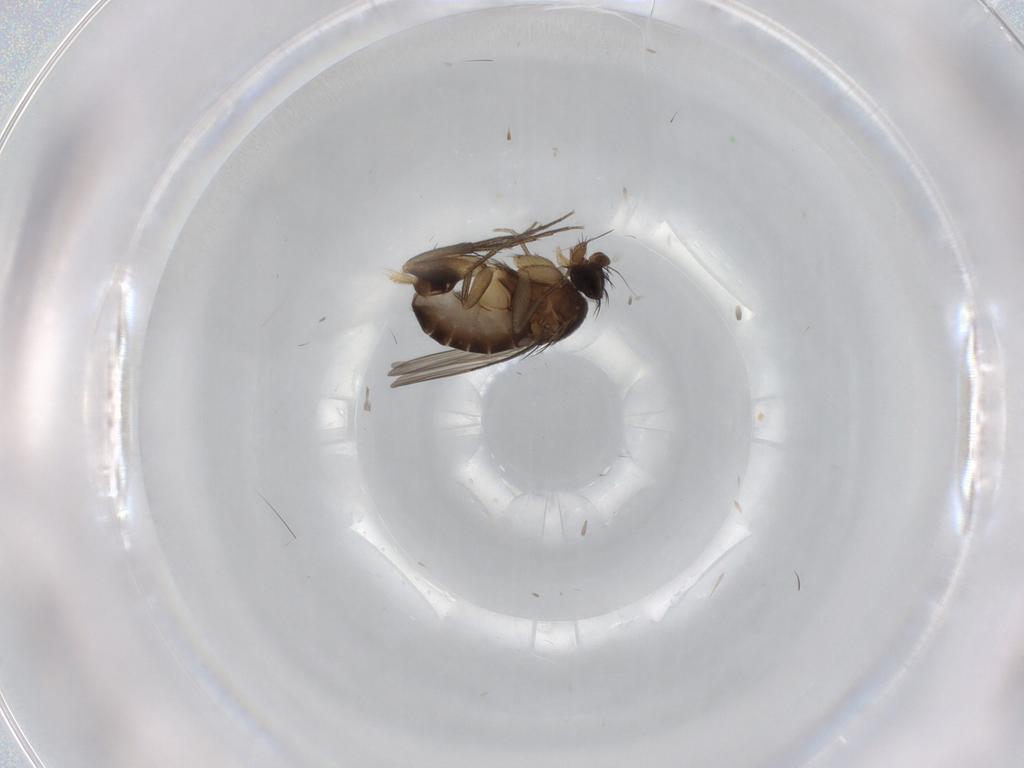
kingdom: Animalia
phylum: Arthropoda
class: Insecta
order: Diptera
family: Phoridae
